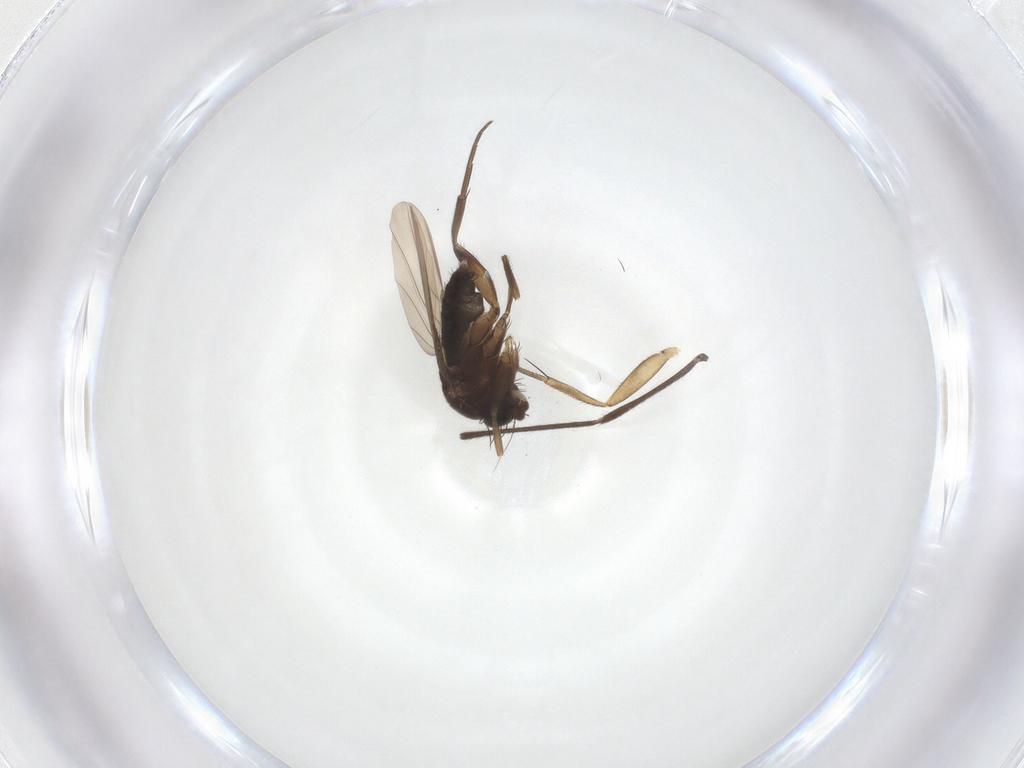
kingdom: Animalia
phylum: Arthropoda
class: Insecta
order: Diptera
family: Cecidomyiidae
